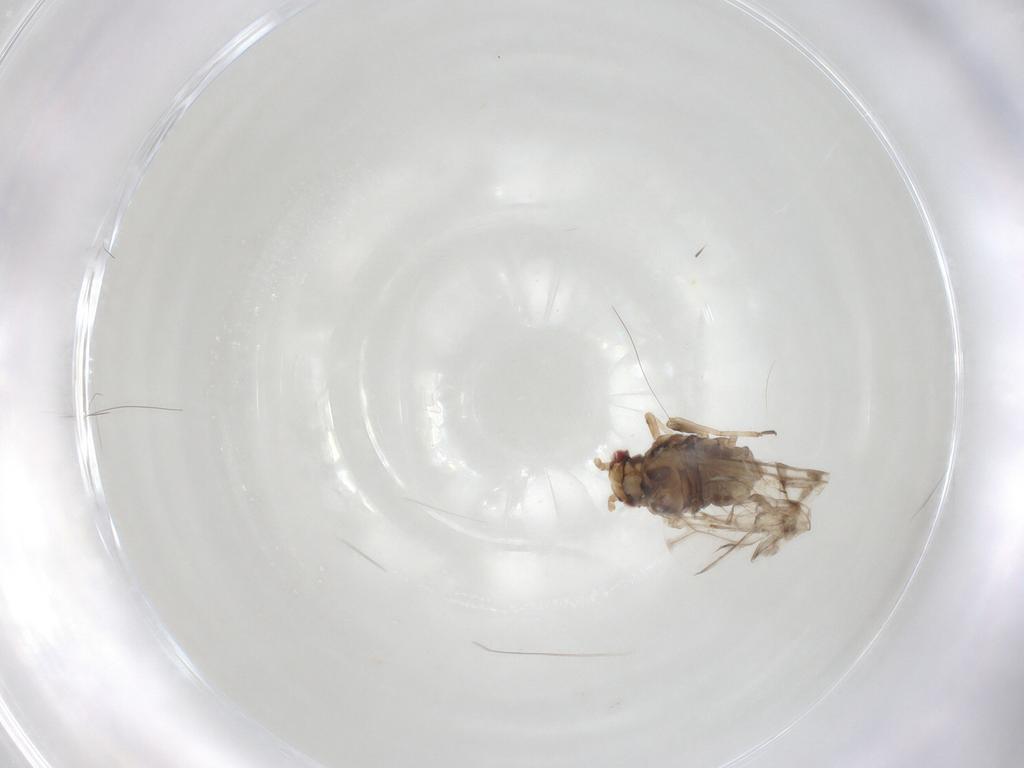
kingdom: Animalia
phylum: Arthropoda
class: Insecta
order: Hemiptera
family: Aphididae
